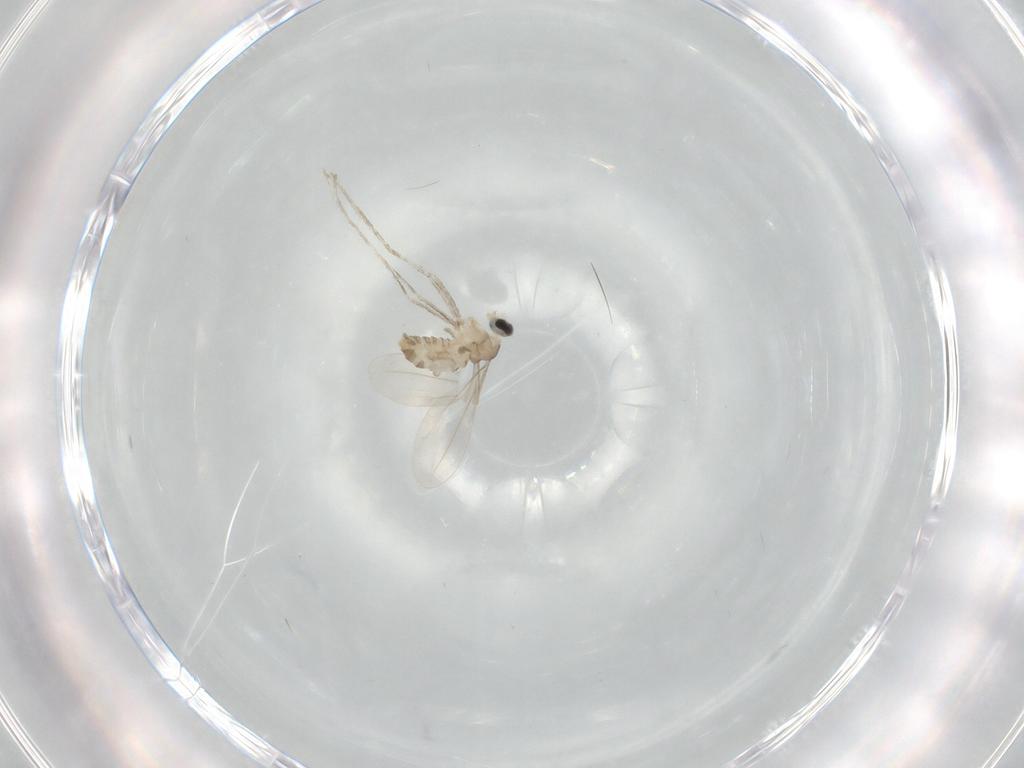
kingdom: Animalia
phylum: Arthropoda
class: Insecta
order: Diptera
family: Cecidomyiidae
